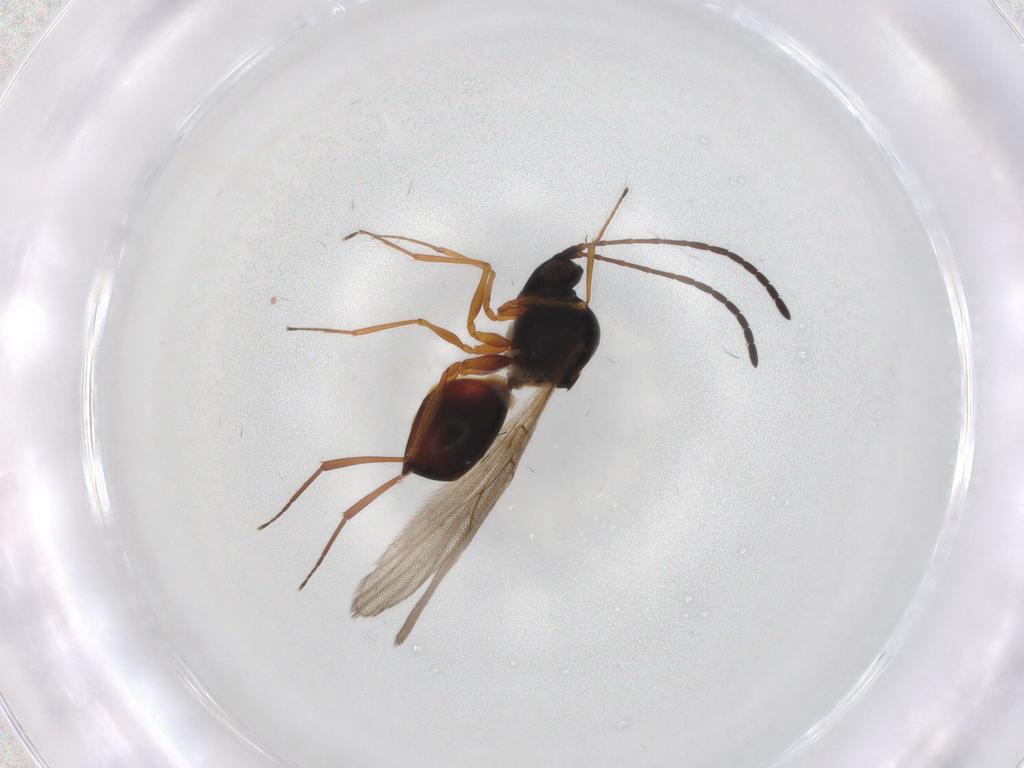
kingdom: Animalia
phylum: Arthropoda
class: Insecta
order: Hymenoptera
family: Figitidae
